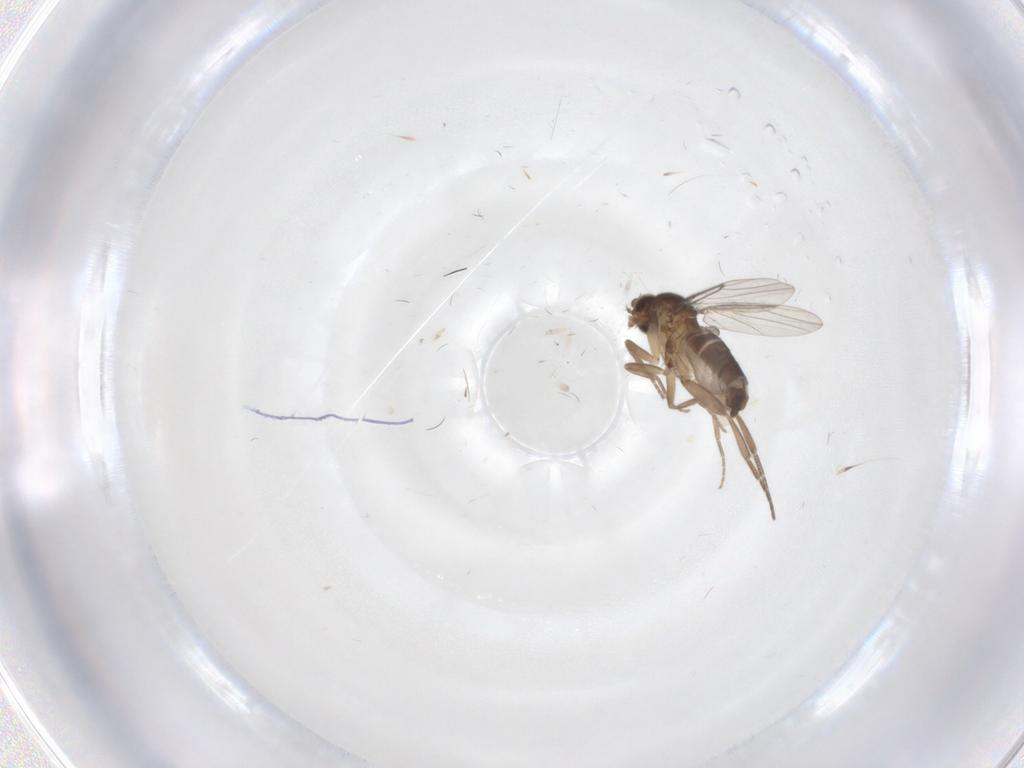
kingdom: Animalia
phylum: Arthropoda
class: Insecta
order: Diptera
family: Phoridae
